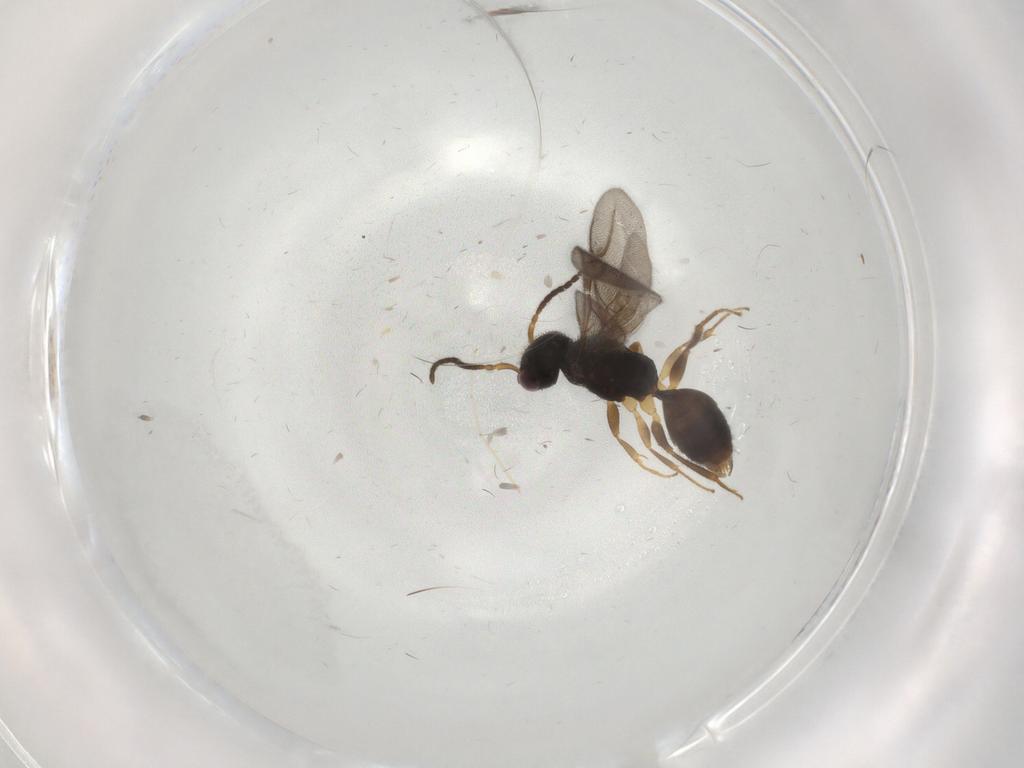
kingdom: Animalia
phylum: Arthropoda
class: Insecta
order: Hymenoptera
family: Bethylidae
